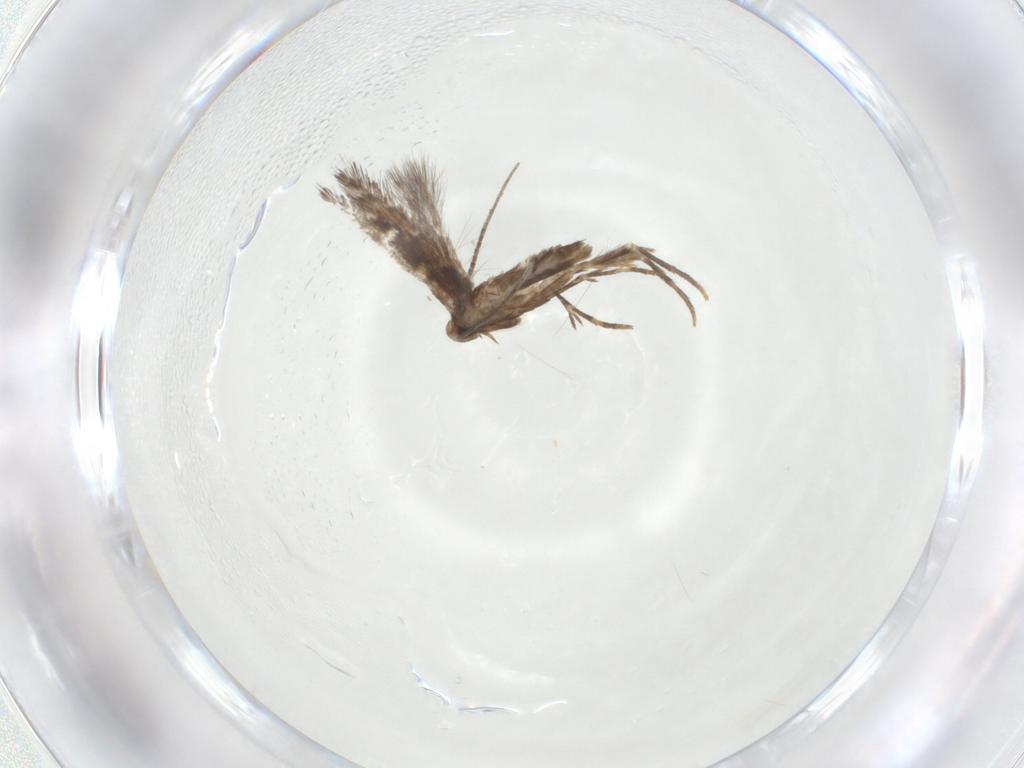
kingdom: Animalia
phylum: Arthropoda
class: Insecta
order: Lepidoptera
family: Gracillariidae
